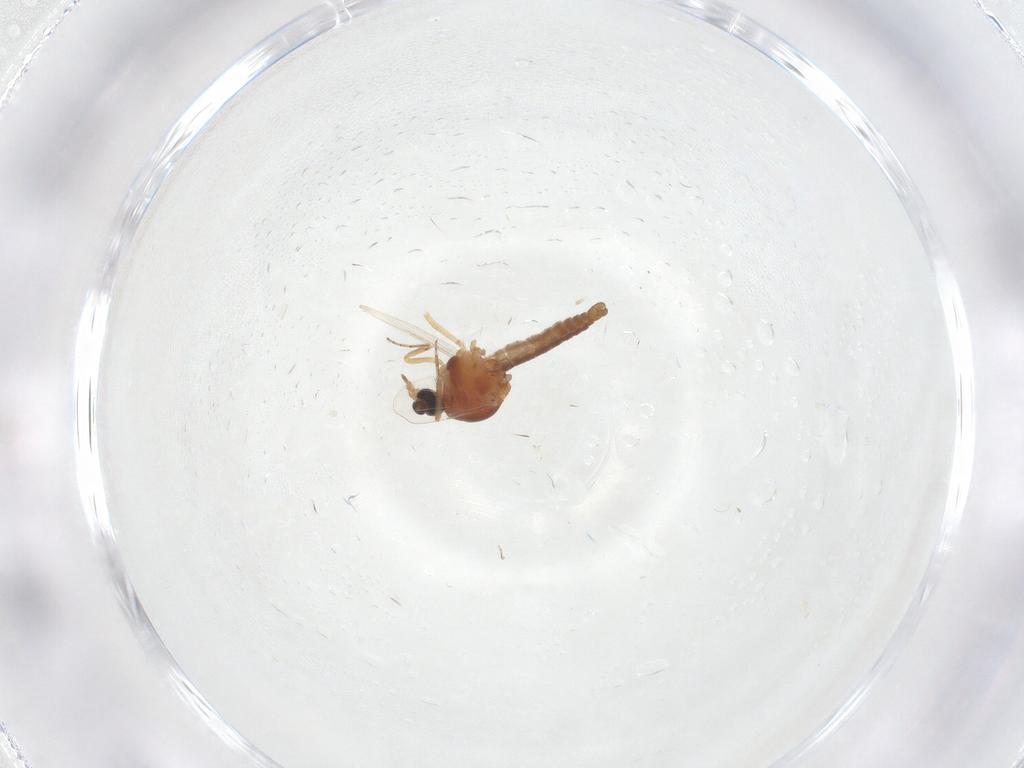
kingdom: Animalia
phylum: Arthropoda
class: Insecta
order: Diptera
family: Ceratopogonidae
